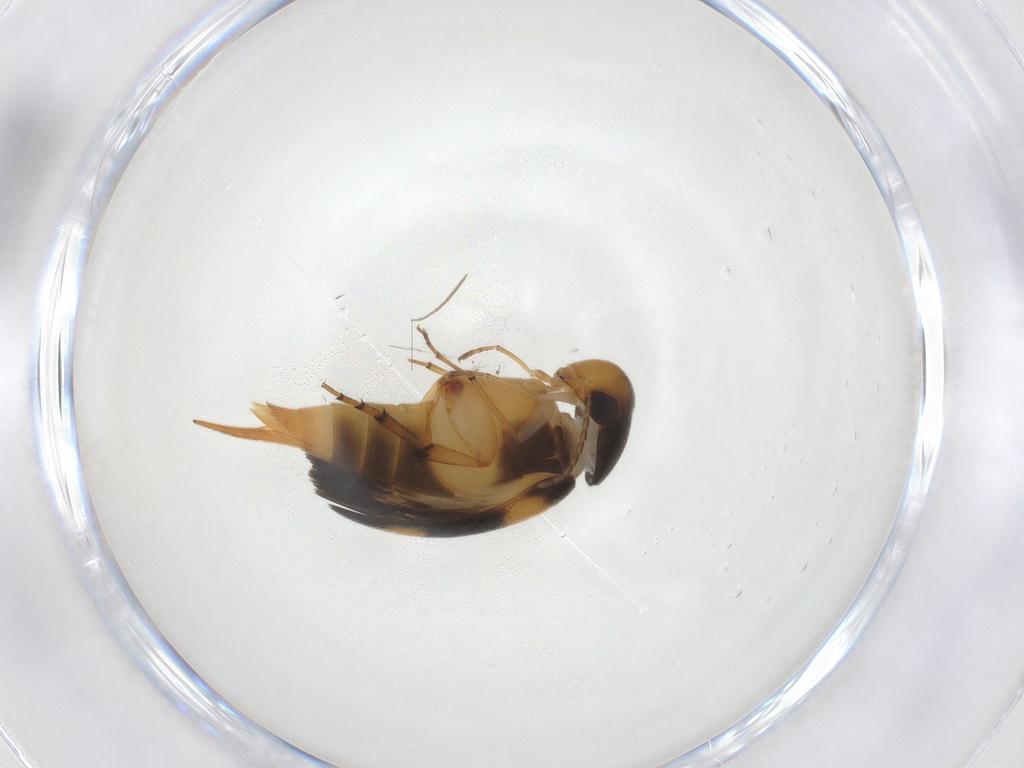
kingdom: Animalia
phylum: Arthropoda
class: Insecta
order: Coleoptera
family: Mordellidae
